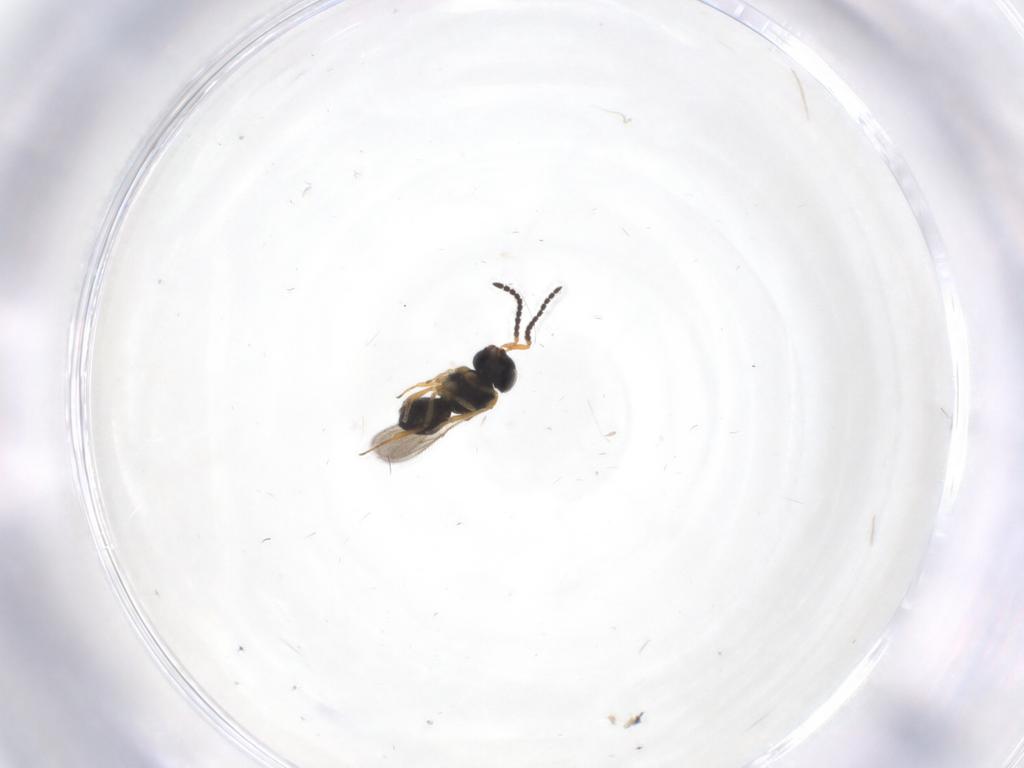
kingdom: Animalia
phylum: Arthropoda
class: Insecta
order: Hymenoptera
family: Scelionidae
